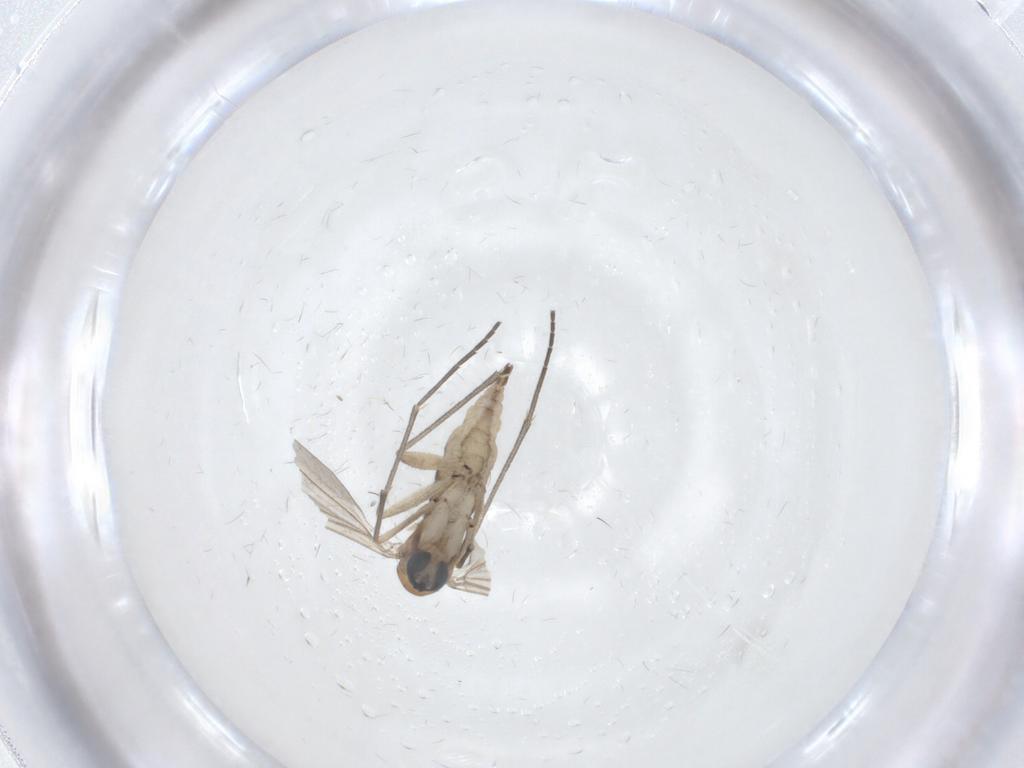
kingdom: Animalia
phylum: Arthropoda
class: Insecta
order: Diptera
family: Sciaridae
